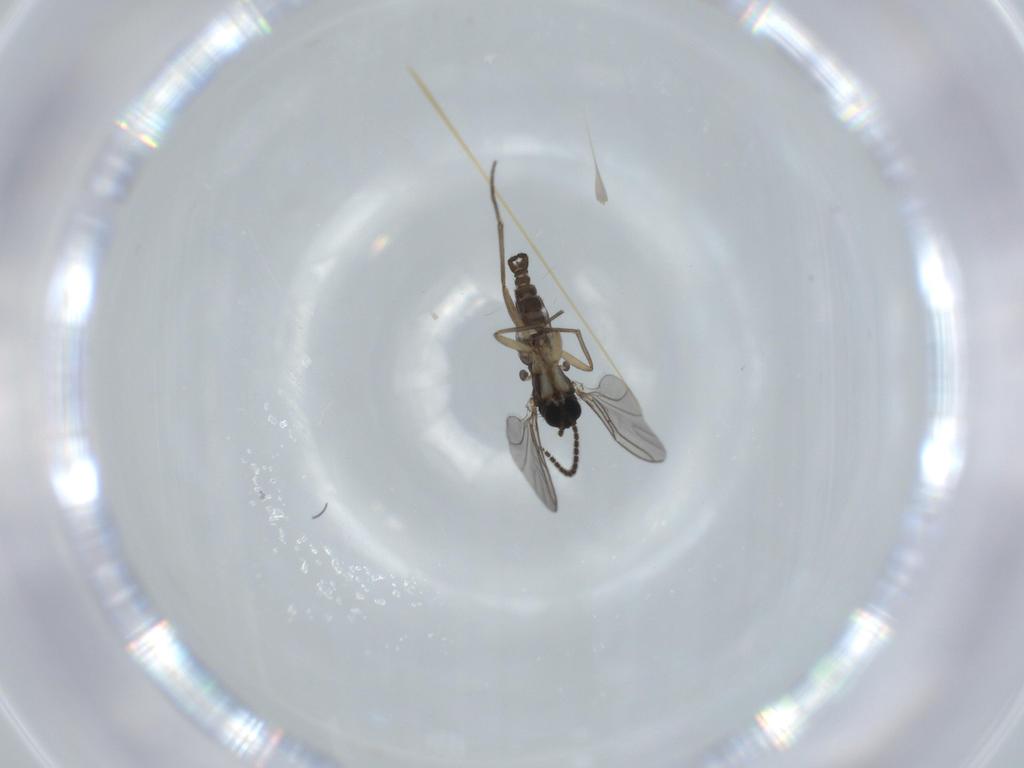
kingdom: Animalia
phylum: Arthropoda
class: Insecta
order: Diptera
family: Sciaridae
